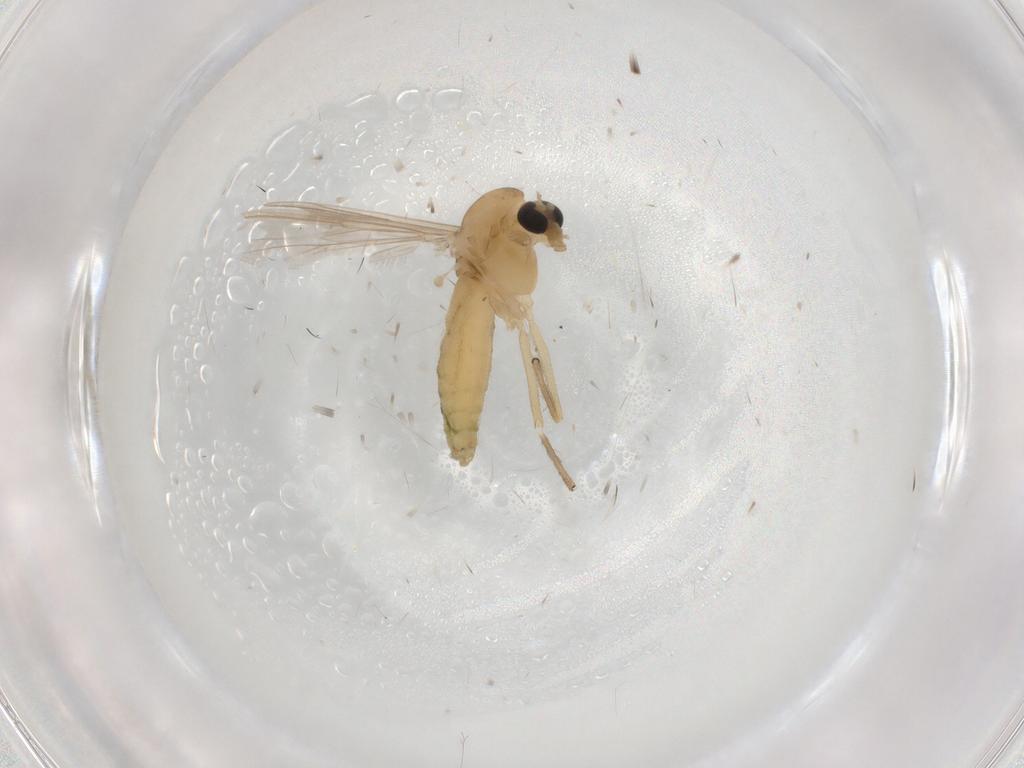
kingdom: Animalia
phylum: Arthropoda
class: Insecta
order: Diptera
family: Chironomidae
